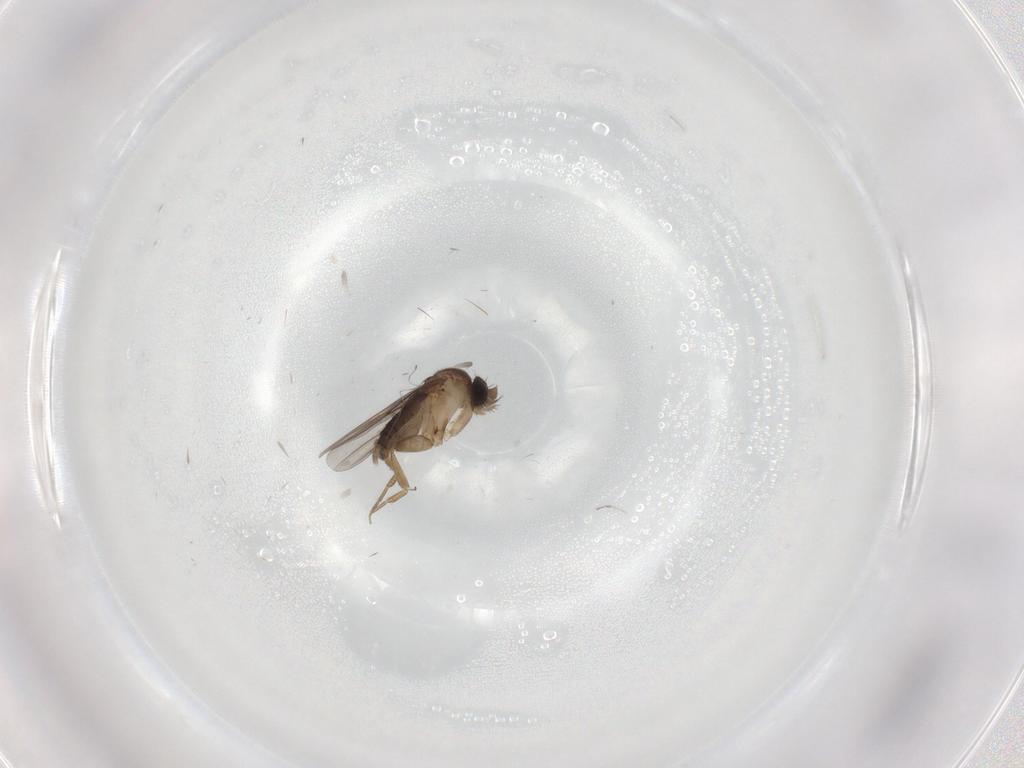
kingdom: Animalia
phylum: Arthropoda
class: Insecta
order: Diptera
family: Phoridae
